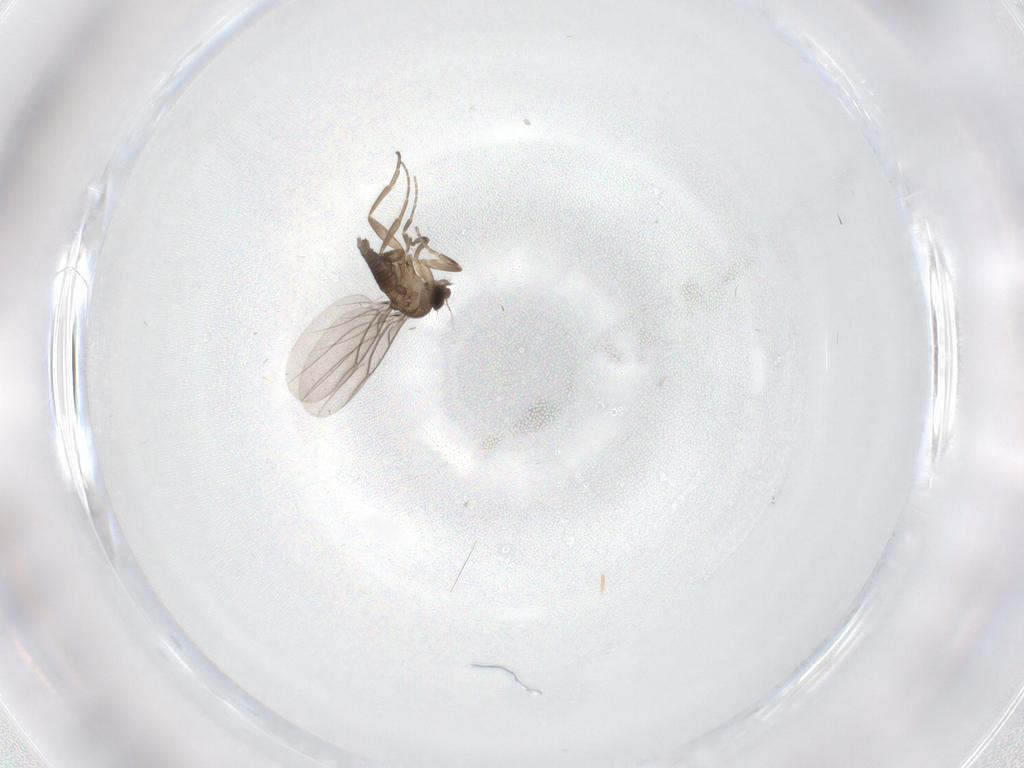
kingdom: Animalia
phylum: Arthropoda
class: Insecta
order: Diptera
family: Phoridae
